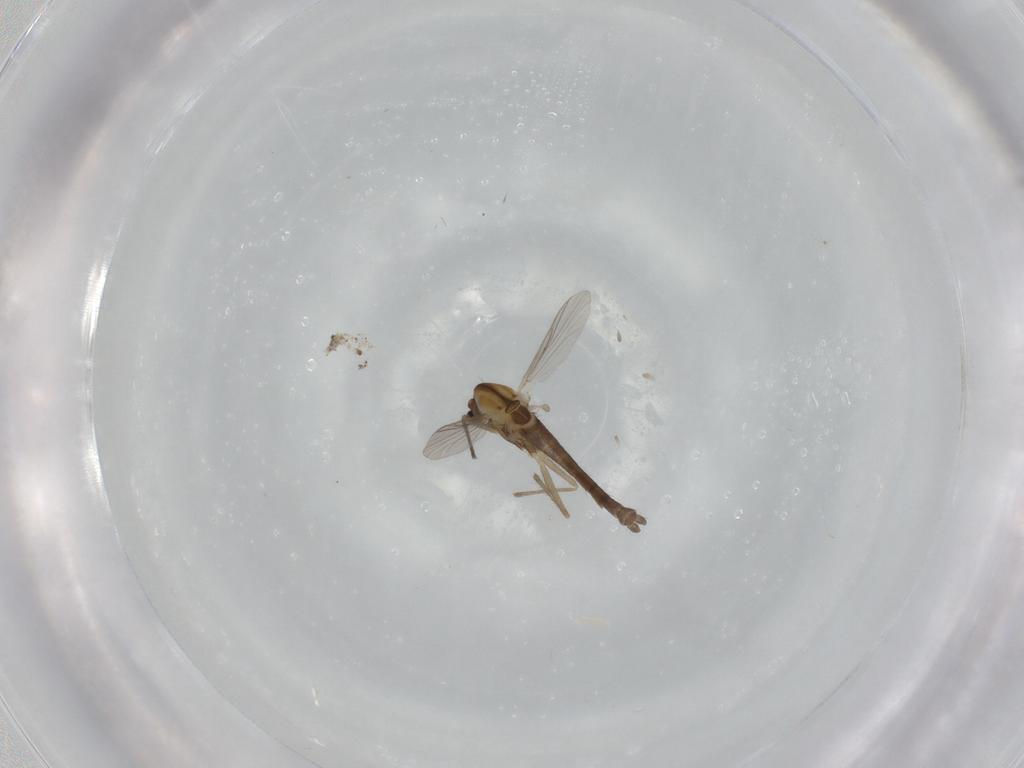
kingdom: Animalia
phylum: Arthropoda
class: Insecta
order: Diptera
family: Chironomidae
